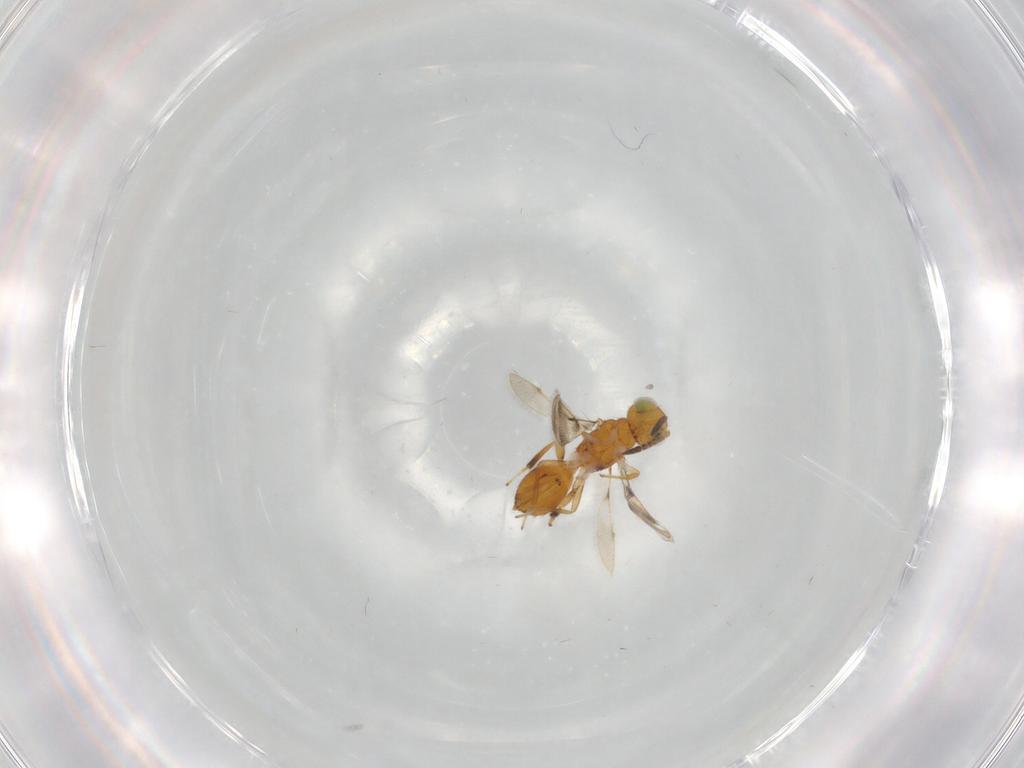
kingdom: Animalia
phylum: Arthropoda
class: Insecta
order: Hymenoptera
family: Pteromalidae
